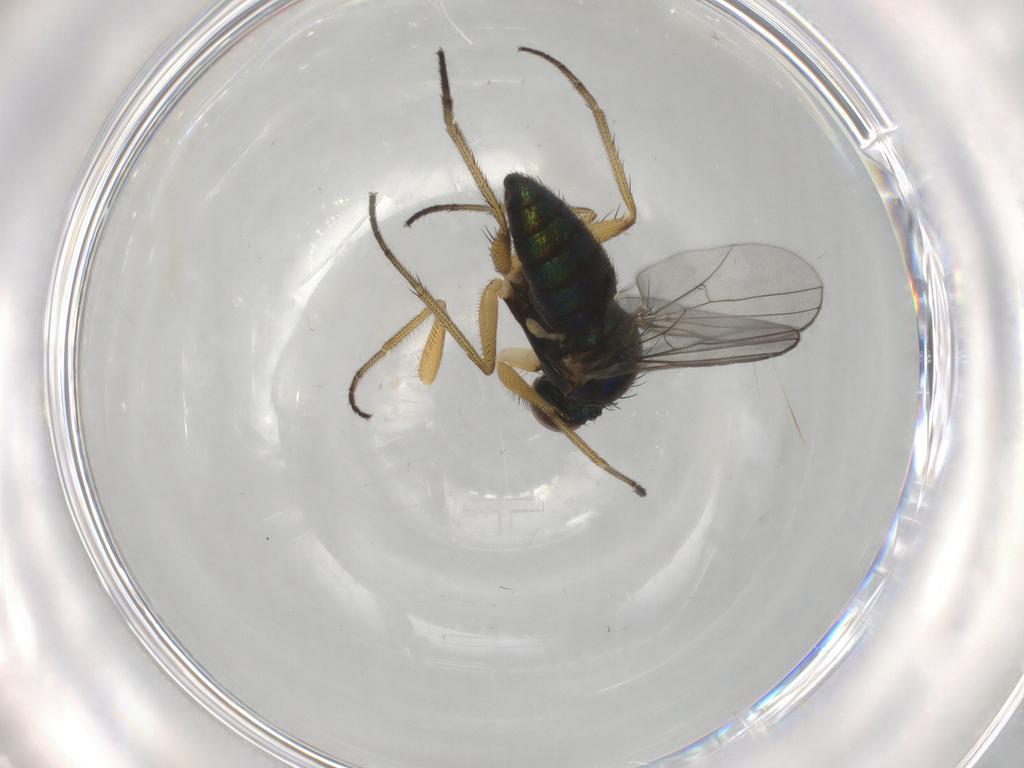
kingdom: Animalia
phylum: Arthropoda
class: Insecta
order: Diptera
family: Dolichopodidae
